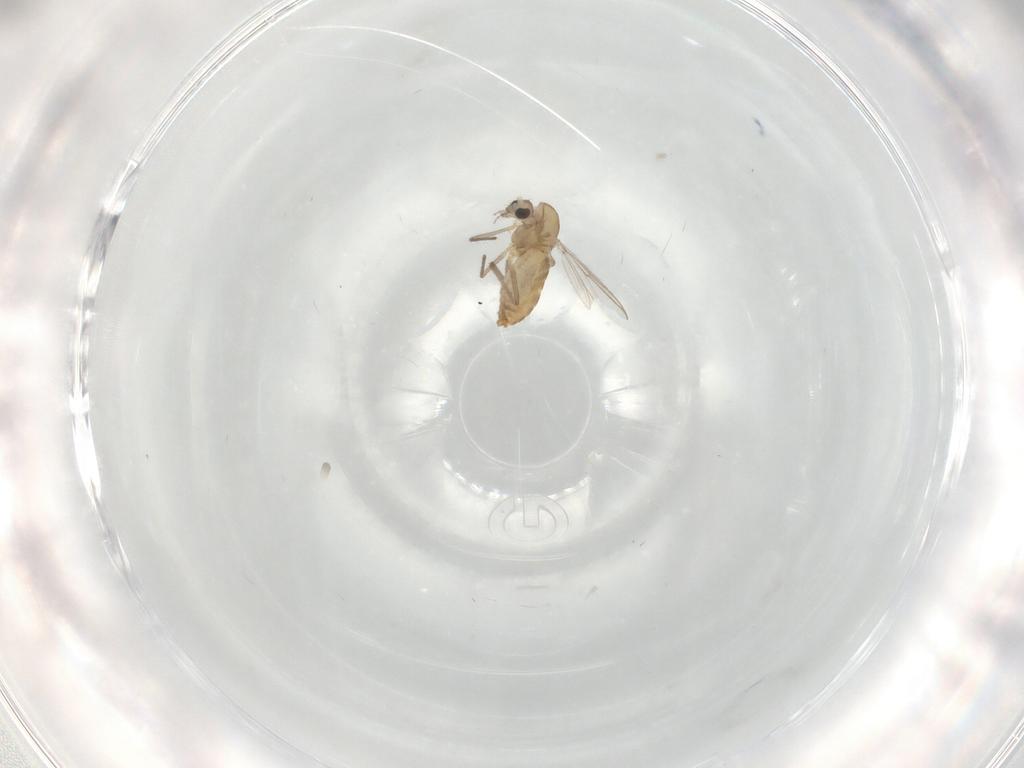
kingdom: Animalia
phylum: Arthropoda
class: Insecta
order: Diptera
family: Chironomidae
